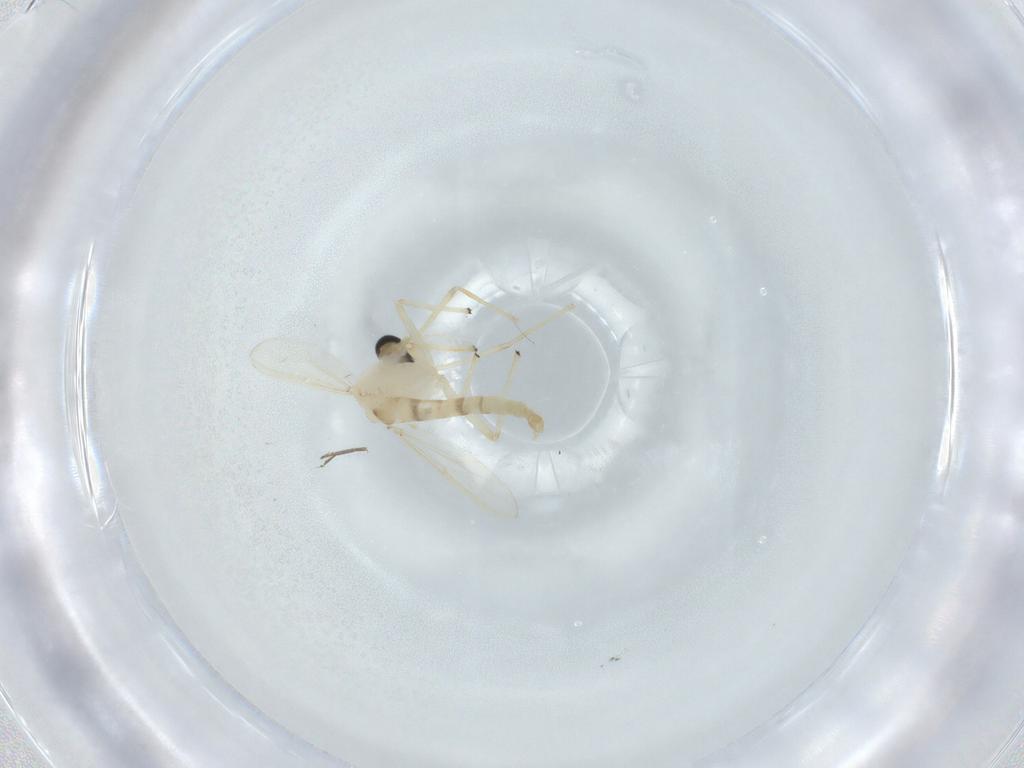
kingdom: Animalia
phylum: Arthropoda
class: Insecta
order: Diptera
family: Chironomidae
